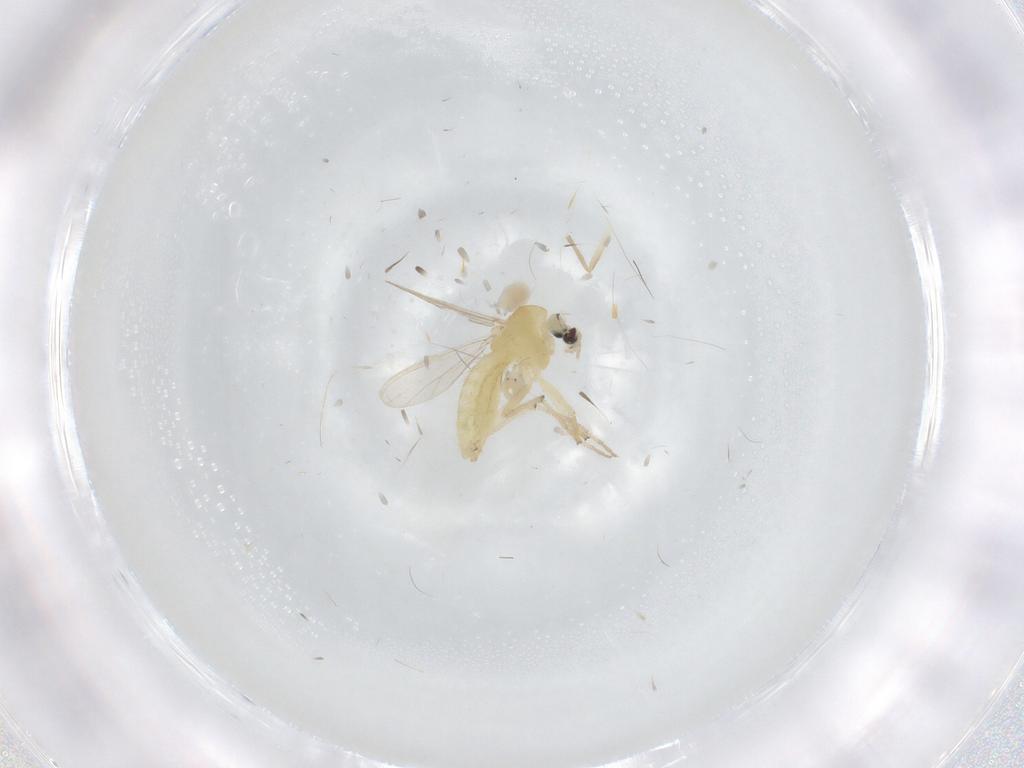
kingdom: Animalia
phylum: Arthropoda
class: Insecta
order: Diptera
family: Chironomidae
